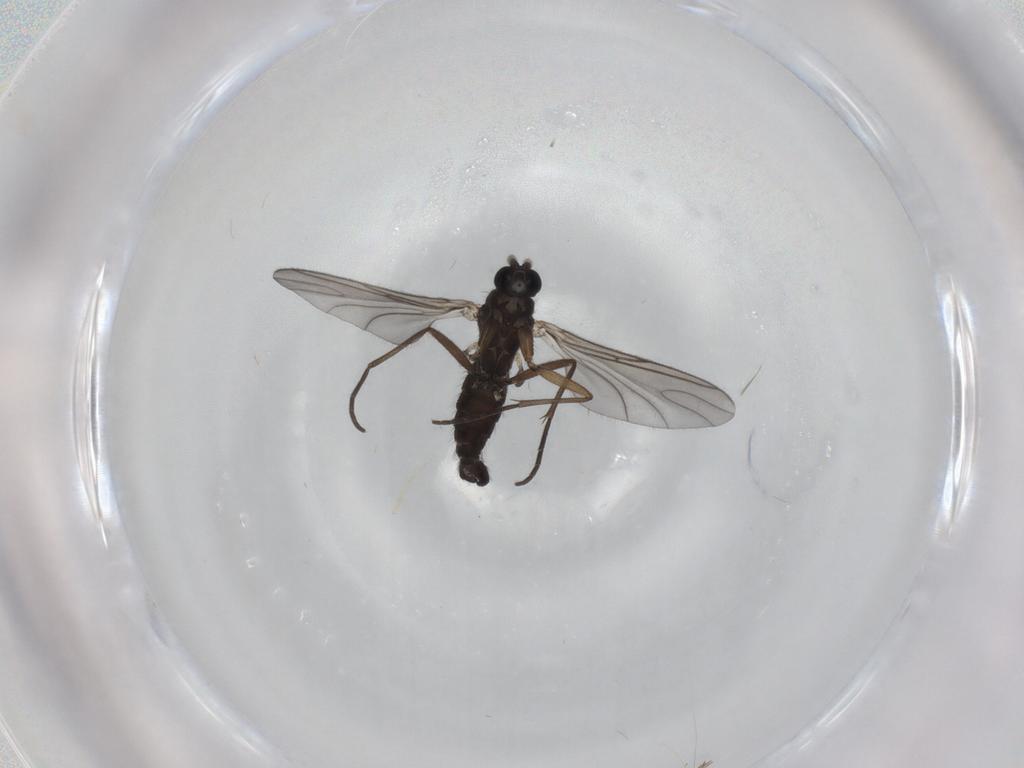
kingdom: Animalia
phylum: Arthropoda
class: Insecta
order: Diptera
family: Sciaridae
